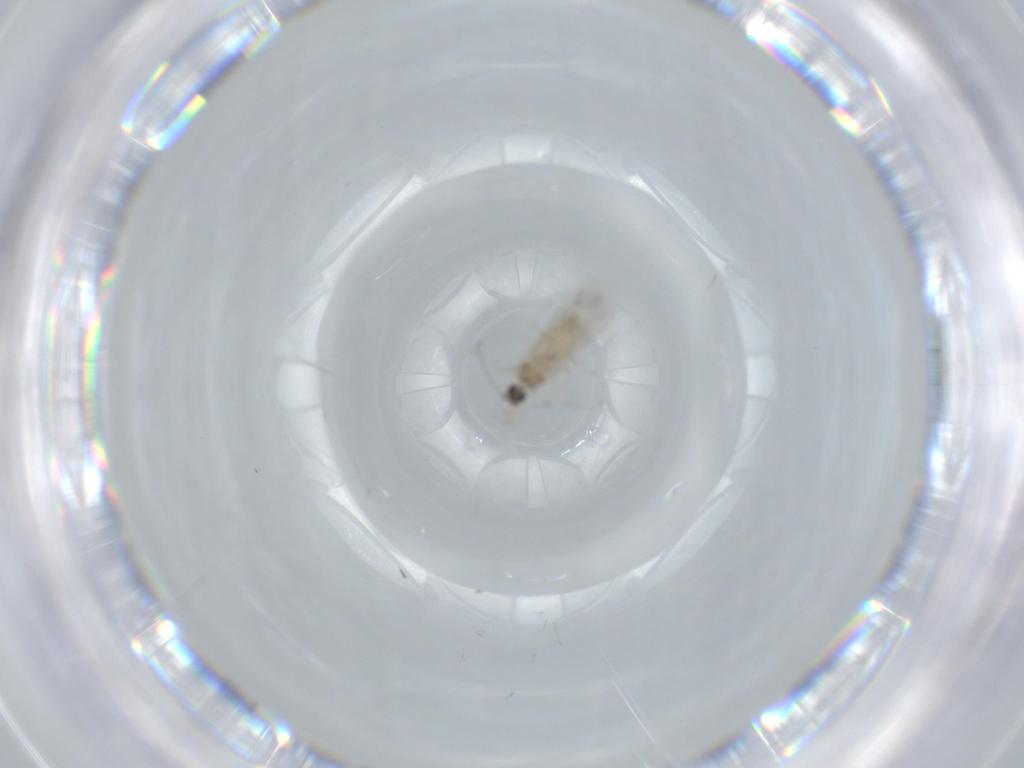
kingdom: Animalia
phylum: Arthropoda
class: Insecta
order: Diptera
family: Cecidomyiidae
